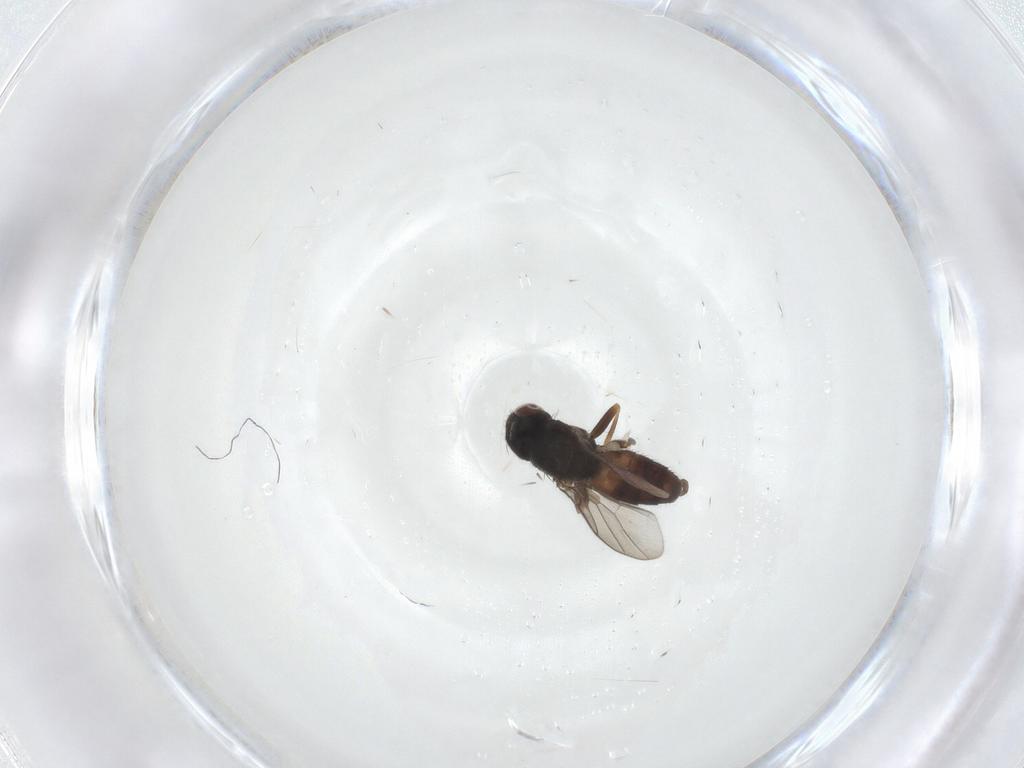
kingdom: Animalia
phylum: Arthropoda
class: Insecta
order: Diptera
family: Chloropidae
